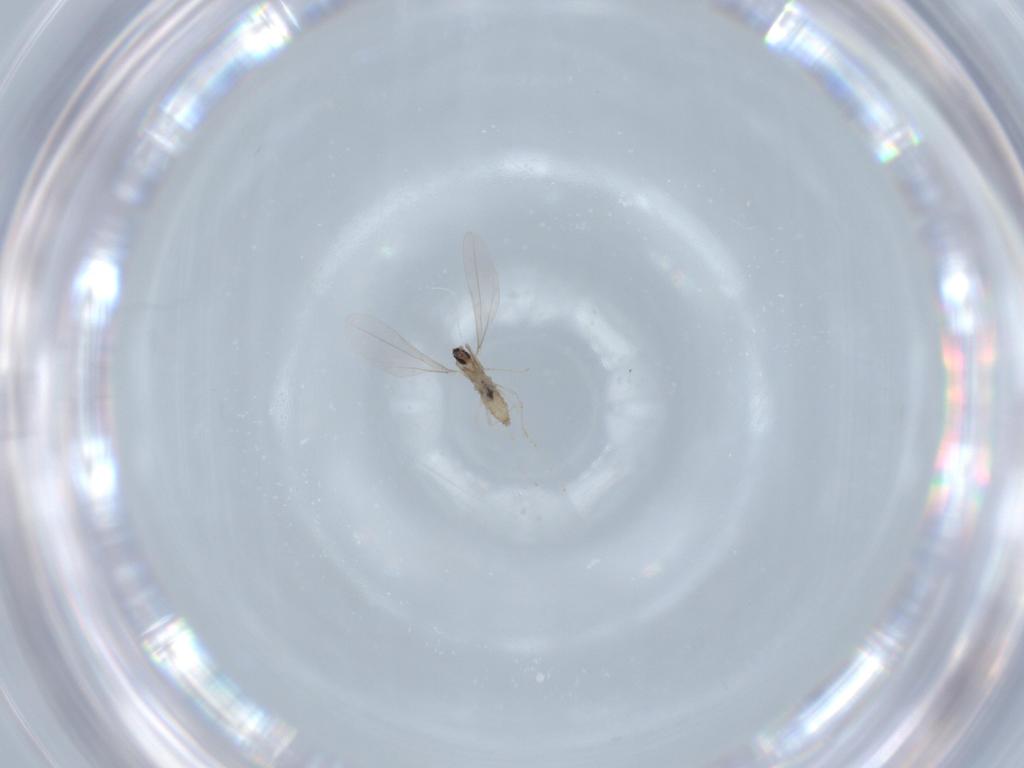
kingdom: Animalia
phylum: Arthropoda
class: Insecta
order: Diptera
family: Cecidomyiidae
